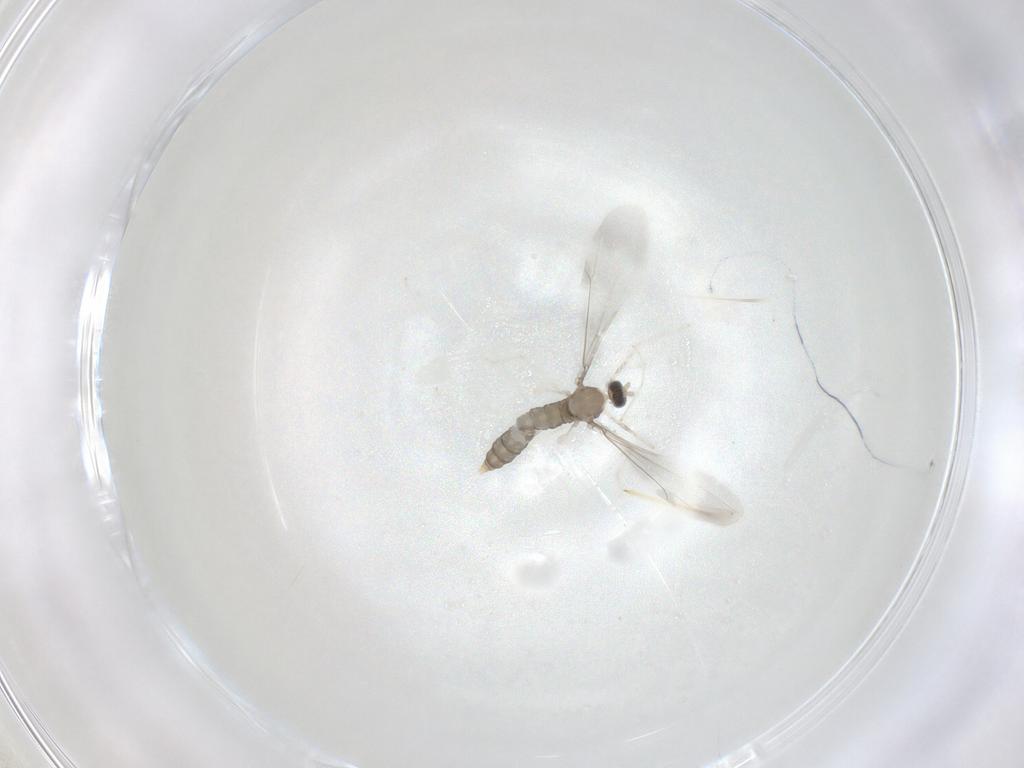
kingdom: Animalia
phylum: Arthropoda
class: Insecta
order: Diptera
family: Cecidomyiidae
